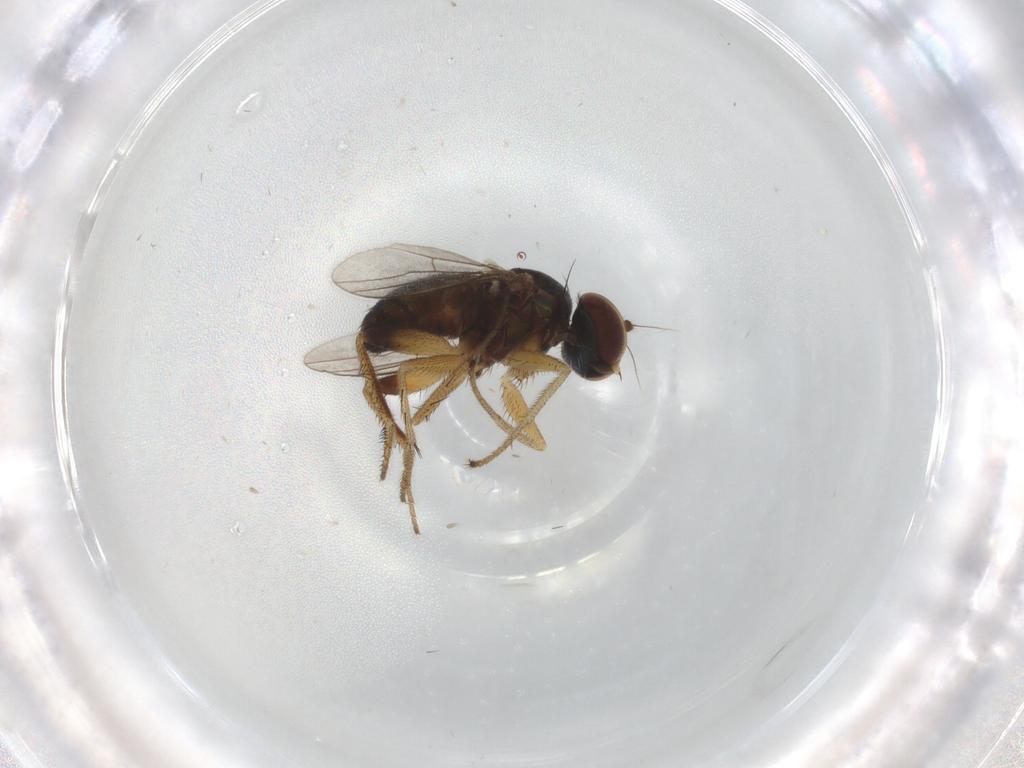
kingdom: Animalia
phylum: Arthropoda
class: Insecta
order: Diptera
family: Dolichopodidae
